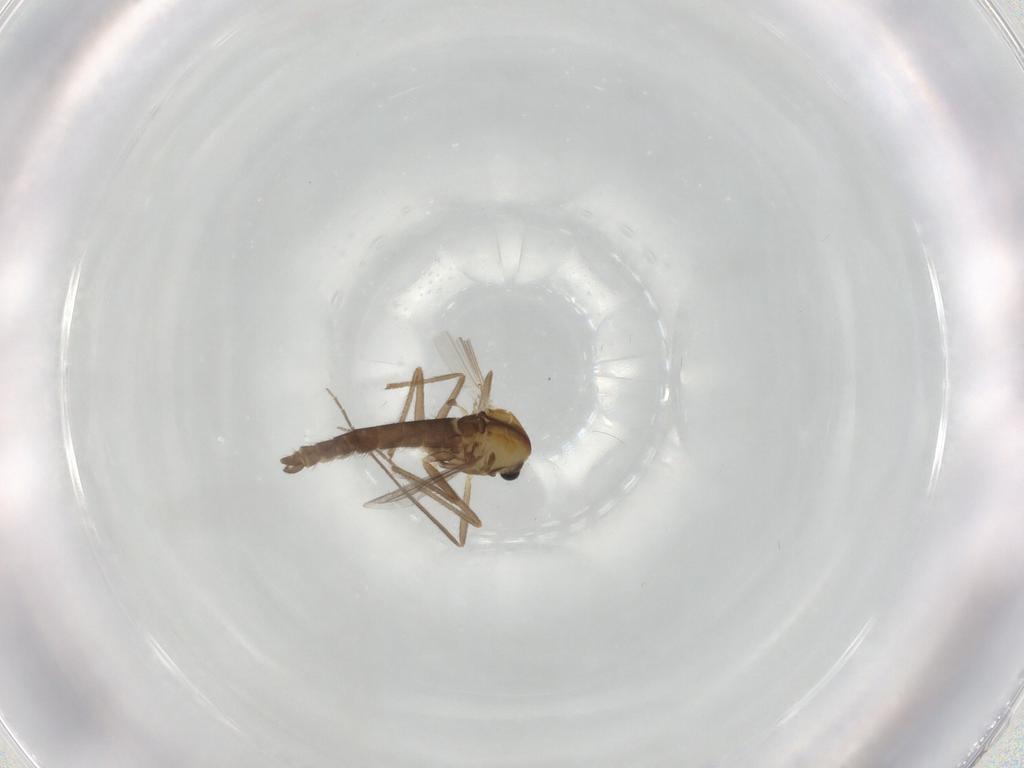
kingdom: Animalia
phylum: Arthropoda
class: Insecta
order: Diptera
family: Chironomidae
